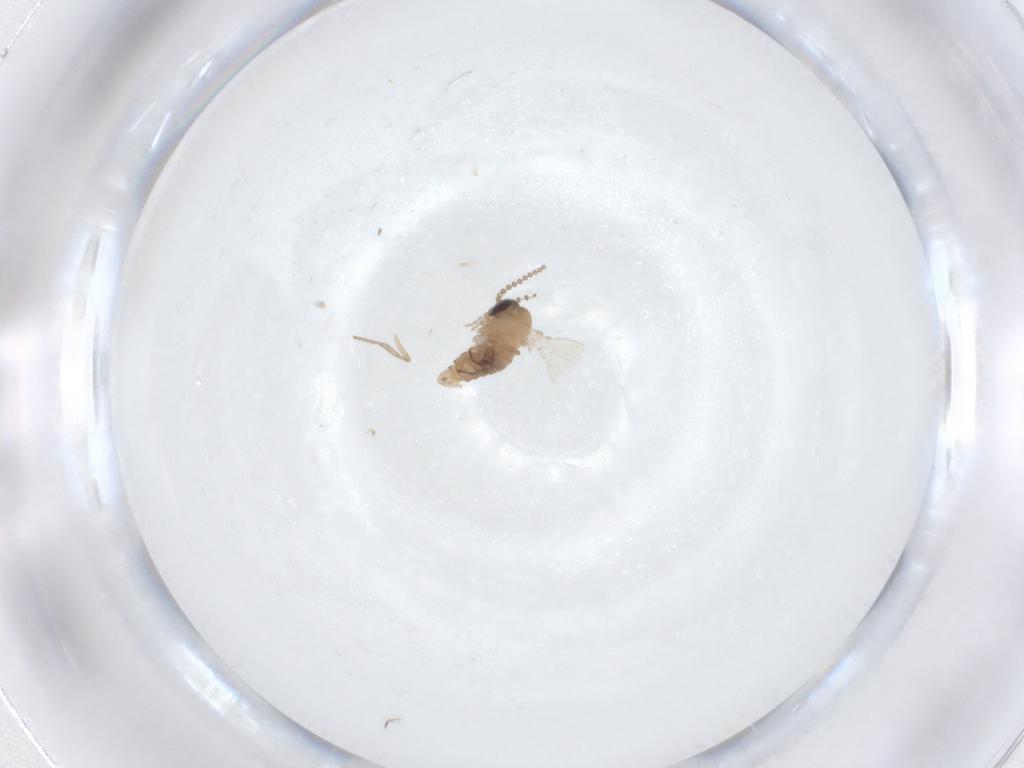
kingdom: Animalia
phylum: Arthropoda
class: Insecta
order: Diptera
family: Psychodidae
